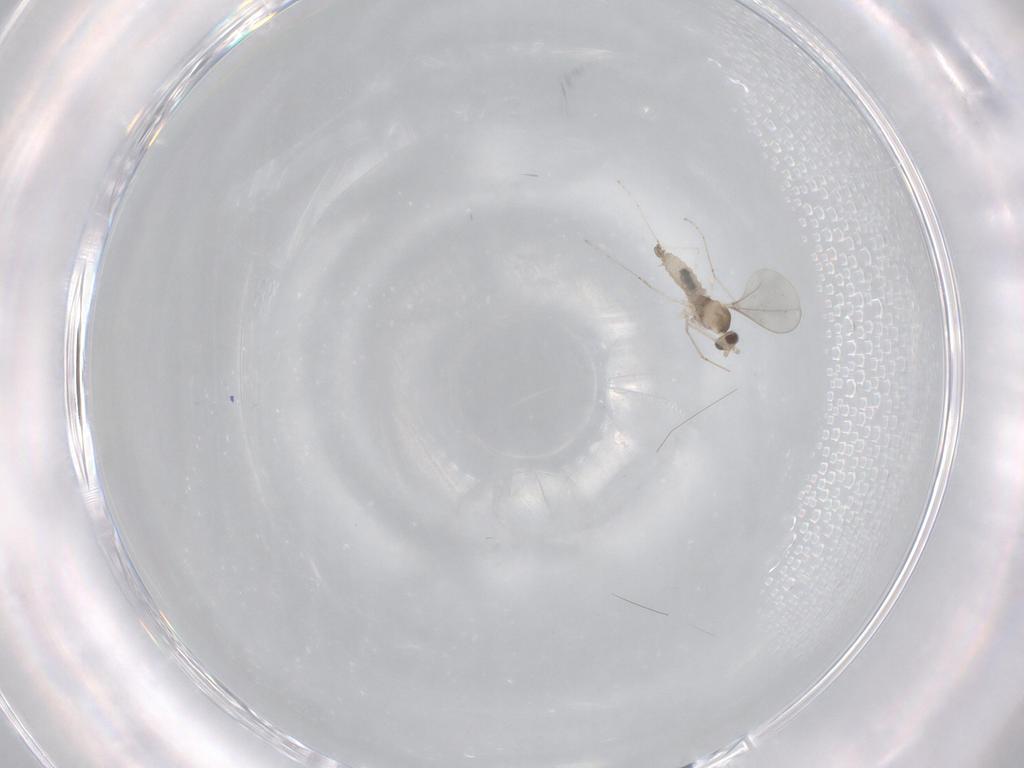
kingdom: Animalia
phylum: Arthropoda
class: Insecta
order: Diptera
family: Cecidomyiidae
